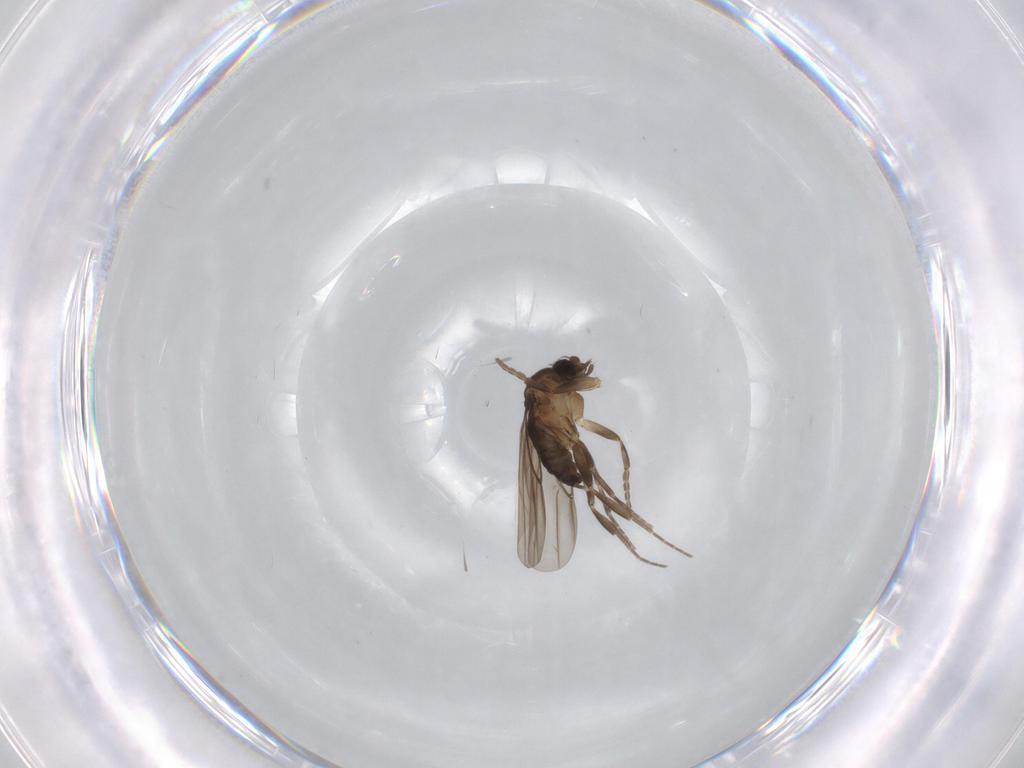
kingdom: Animalia
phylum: Arthropoda
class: Insecta
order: Diptera
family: Phoridae
